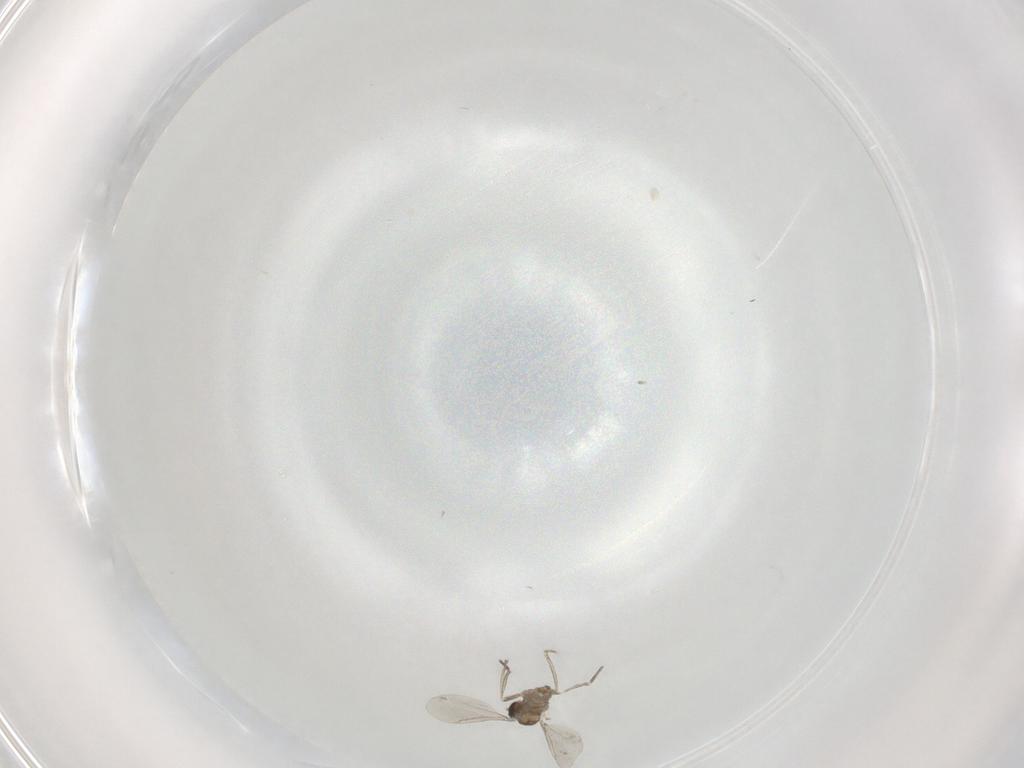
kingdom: Animalia
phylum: Arthropoda
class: Insecta
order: Diptera
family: Cecidomyiidae
